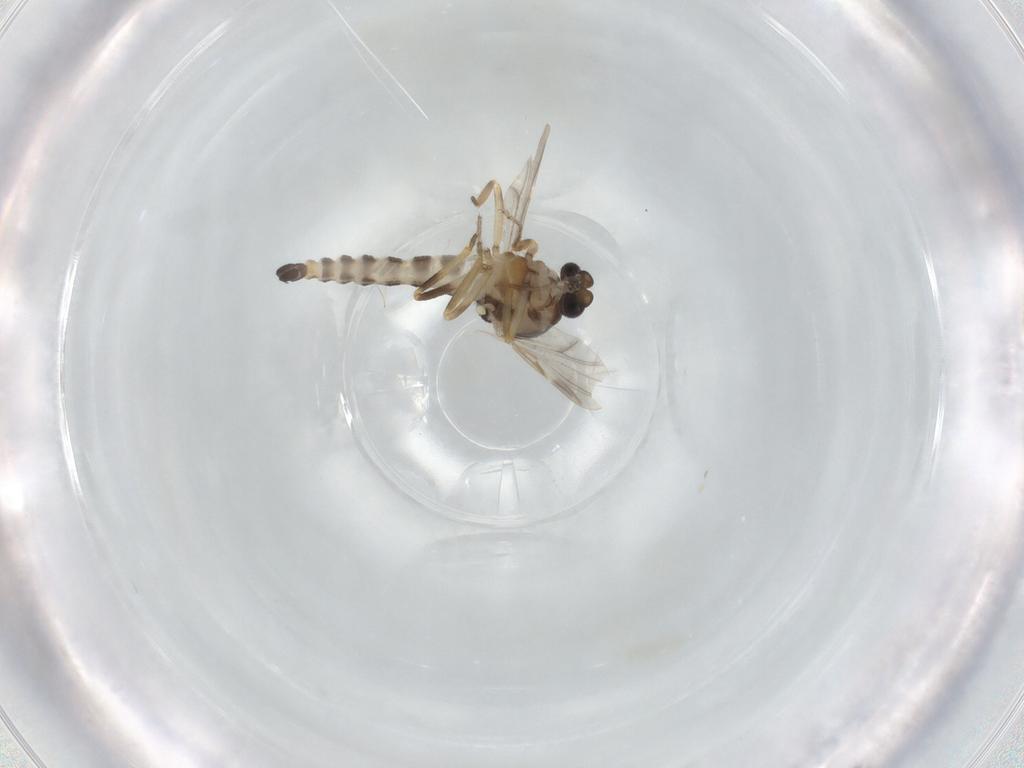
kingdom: Animalia
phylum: Arthropoda
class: Insecta
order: Diptera
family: Ceratopogonidae
